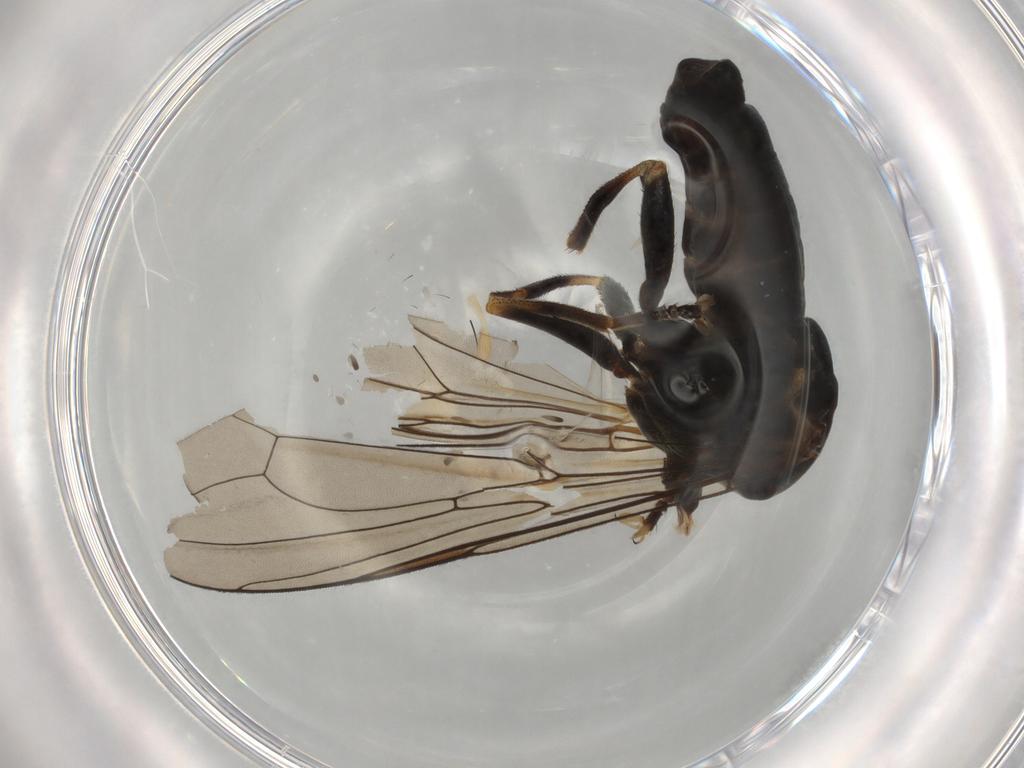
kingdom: Animalia
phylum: Arthropoda
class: Insecta
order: Diptera
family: Pipunculidae
